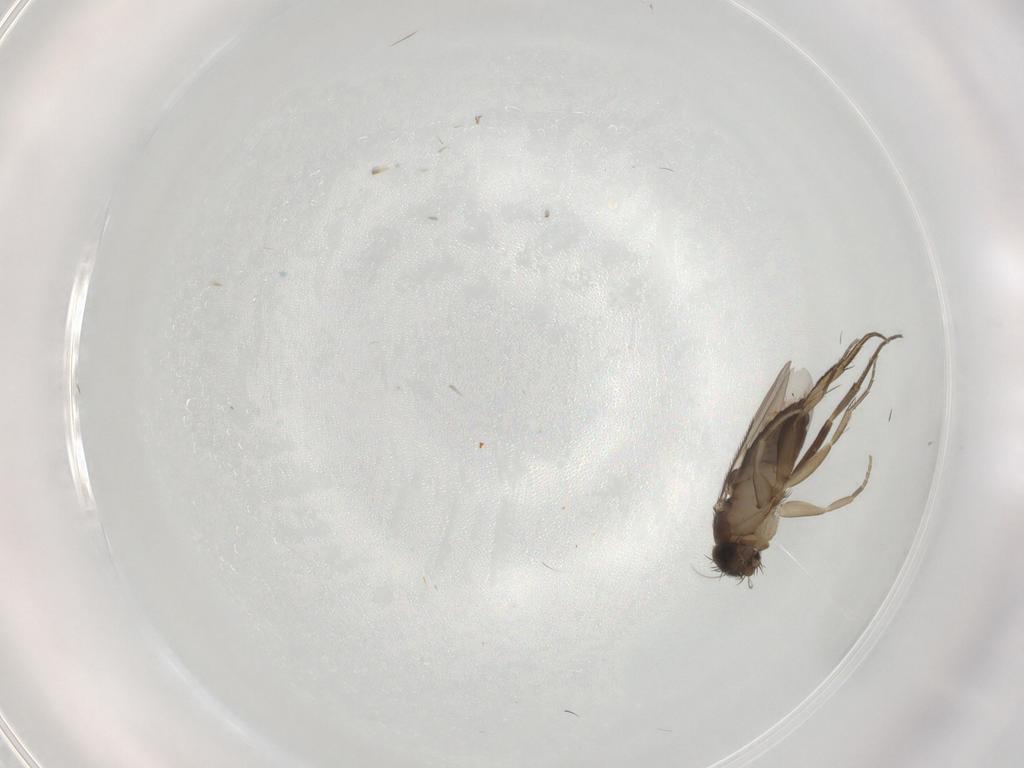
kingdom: Animalia
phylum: Arthropoda
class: Insecta
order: Diptera
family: Phoridae
